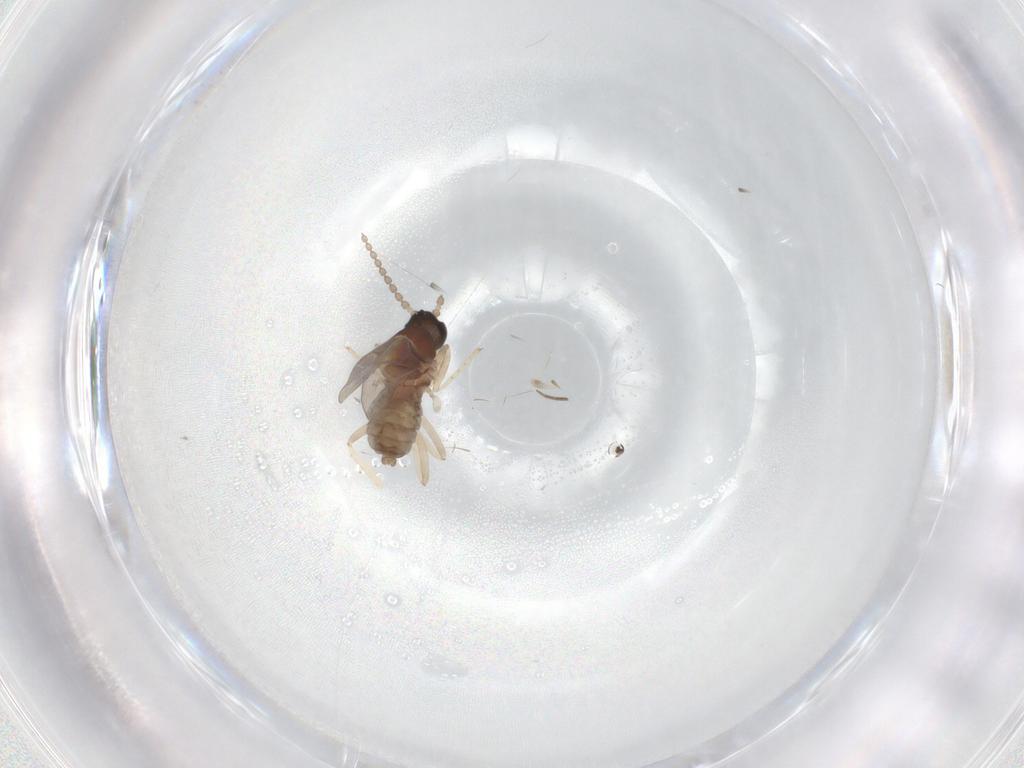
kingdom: Animalia
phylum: Arthropoda
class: Insecta
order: Diptera
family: Cecidomyiidae
